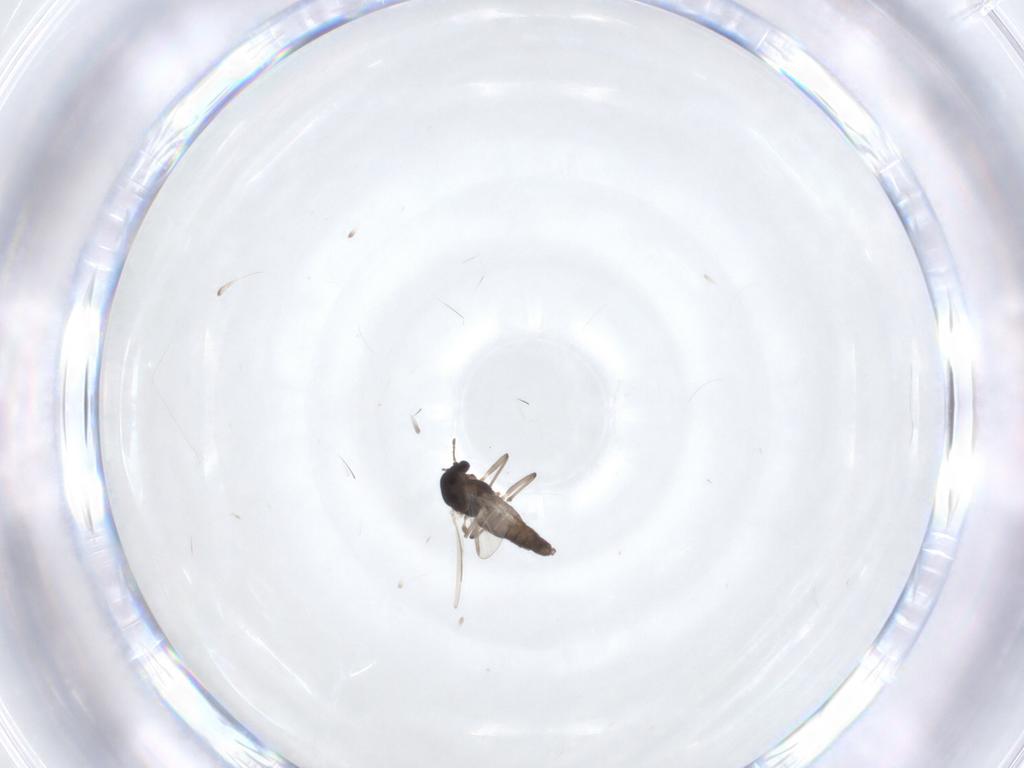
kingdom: Animalia
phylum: Arthropoda
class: Insecta
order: Diptera
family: Chironomidae
